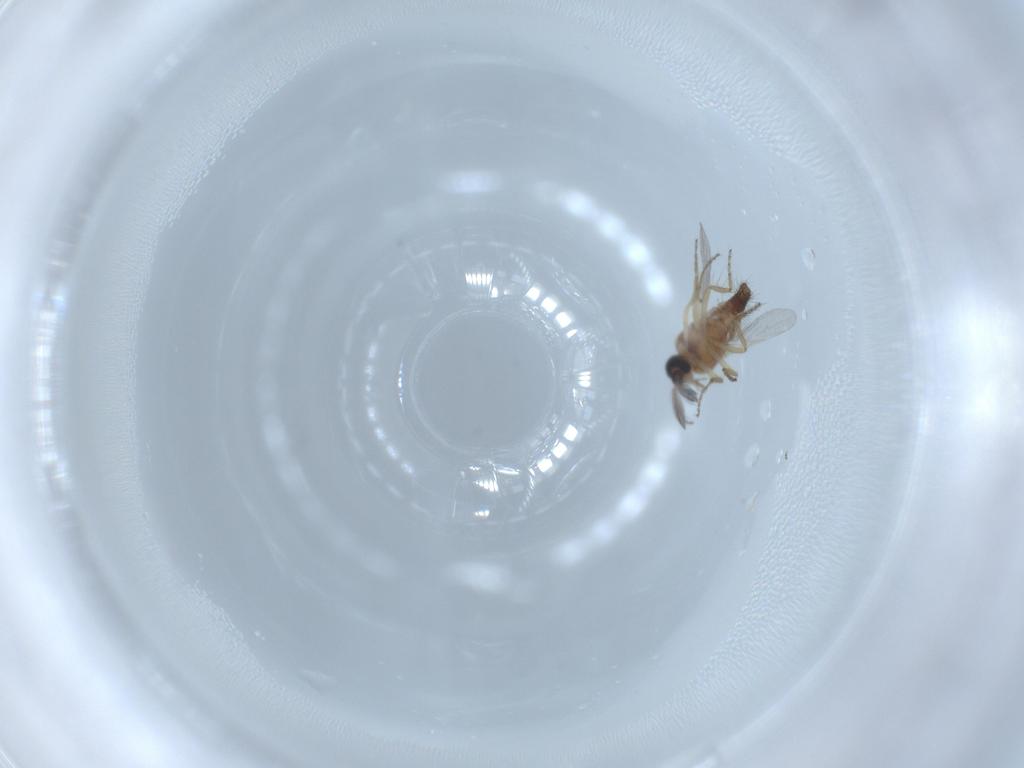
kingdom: Animalia
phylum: Arthropoda
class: Insecta
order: Diptera
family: Ceratopogonidae
